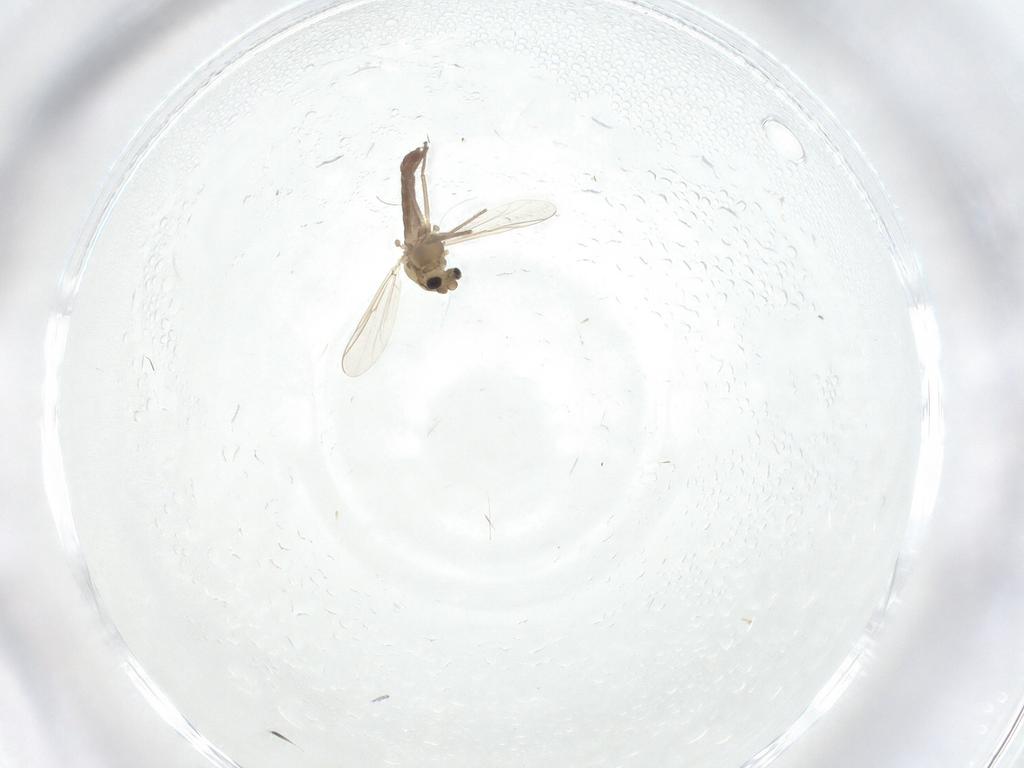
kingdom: Animalia
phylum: Arthropoda
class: Insecta
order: Diptera
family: Chironomidae
